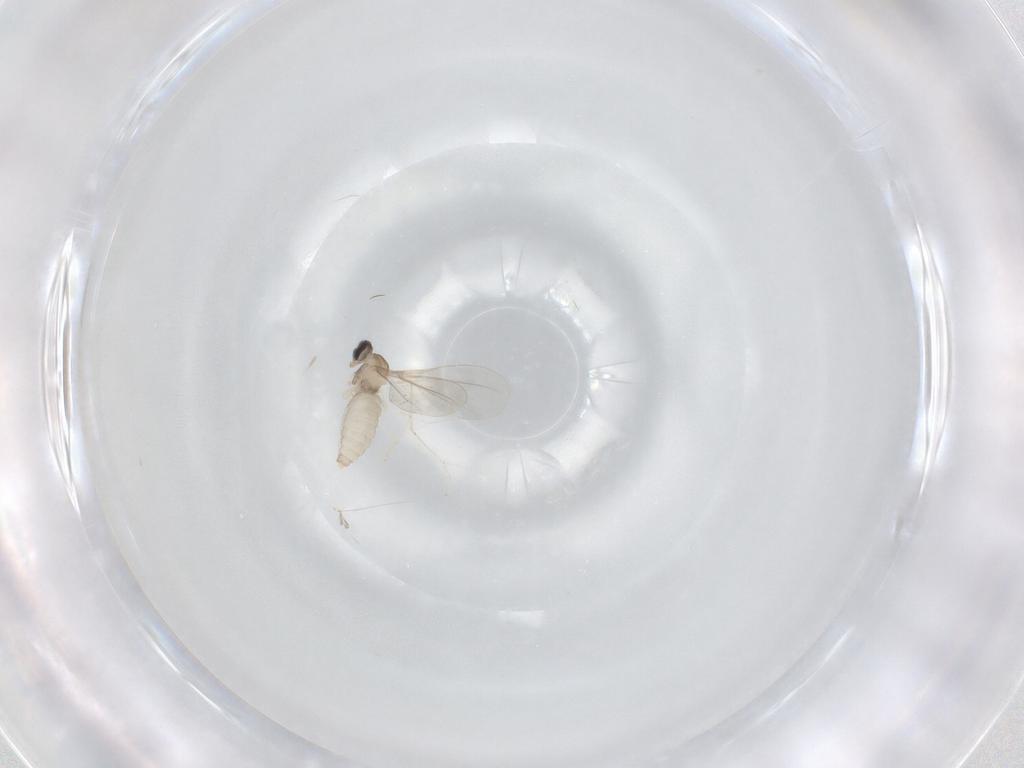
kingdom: Animalia
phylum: Arthropoda
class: Insecta
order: Diptera
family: Cecidomyiidae
